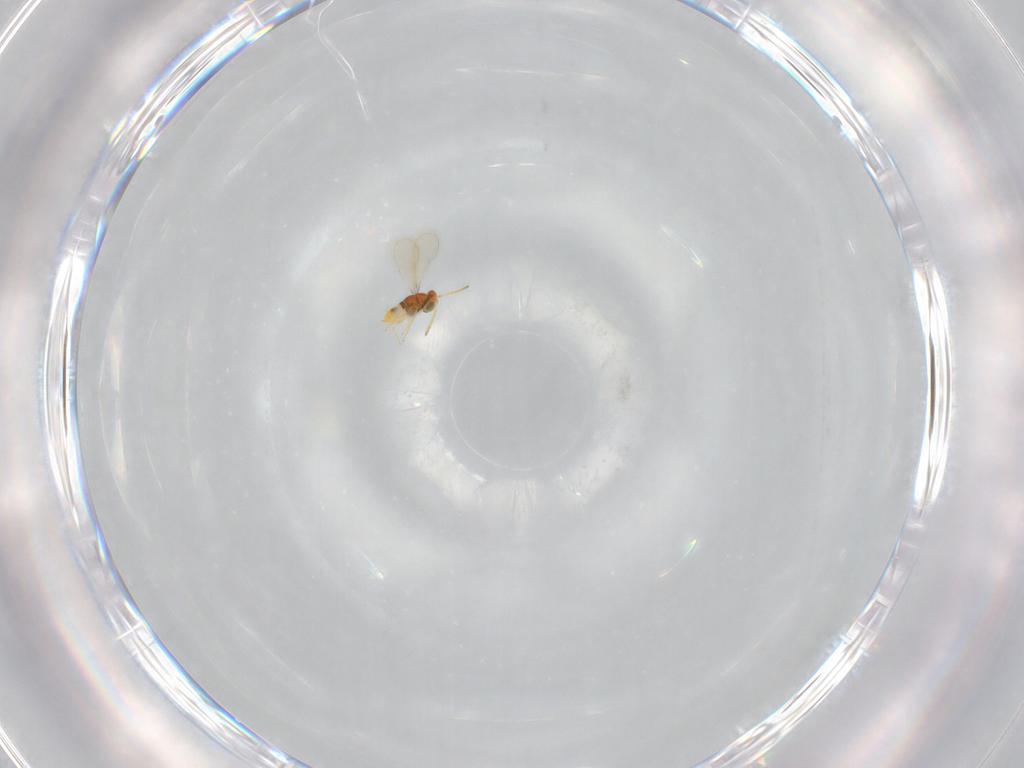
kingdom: Animalia
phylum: Arthropoda
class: Insecta
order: Hymenoptera
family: Aphelinidae
